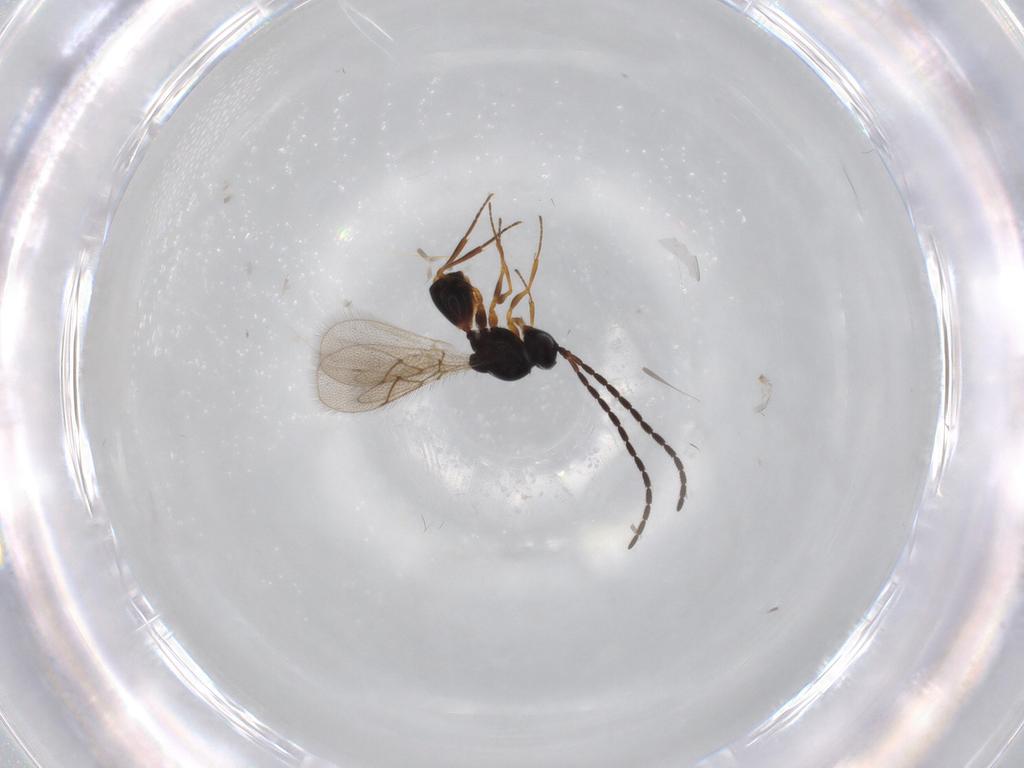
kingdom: Animalia
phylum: Arthropoda
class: Insecta
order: Hymenoptera
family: Figitidae
